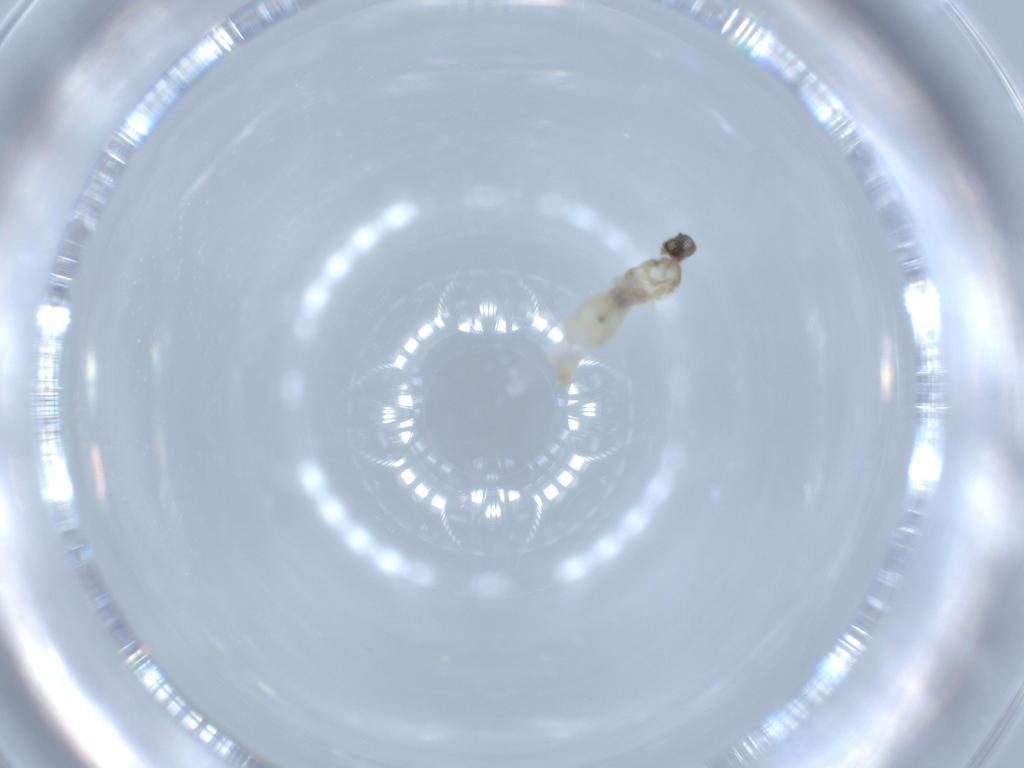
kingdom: Animalia
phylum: Arthropoda
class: Insecta
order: Diptera
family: Cecidomyiidae
